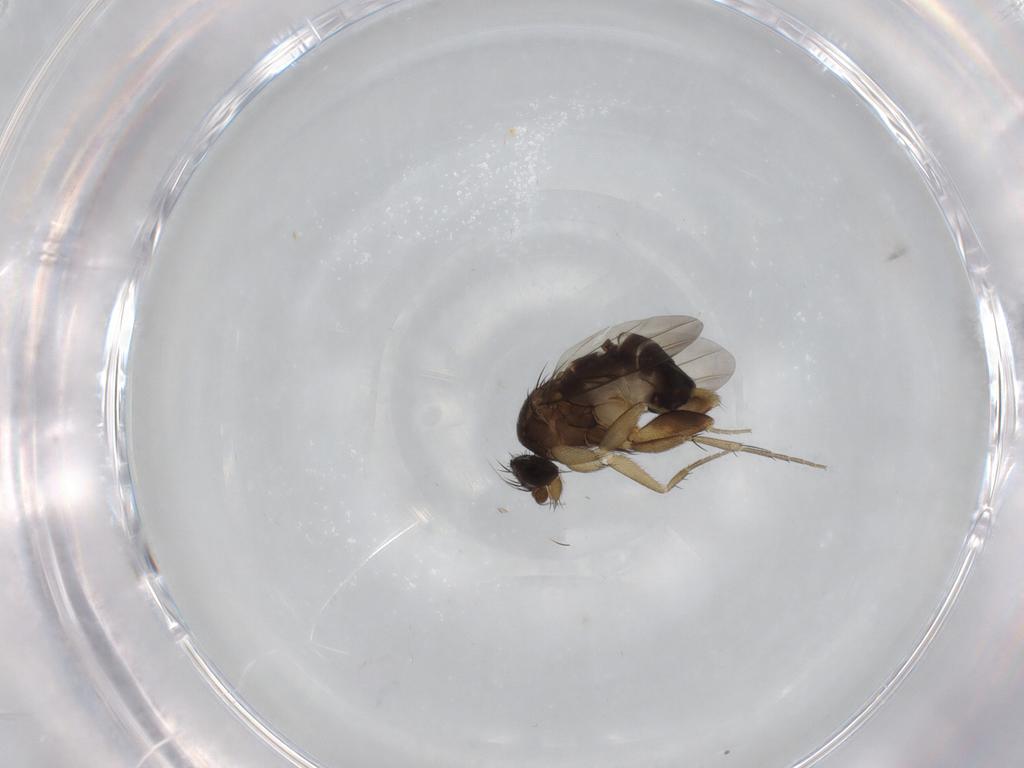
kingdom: Animalia
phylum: Arthropoda
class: Insecta
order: Diptera
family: Phoridae
